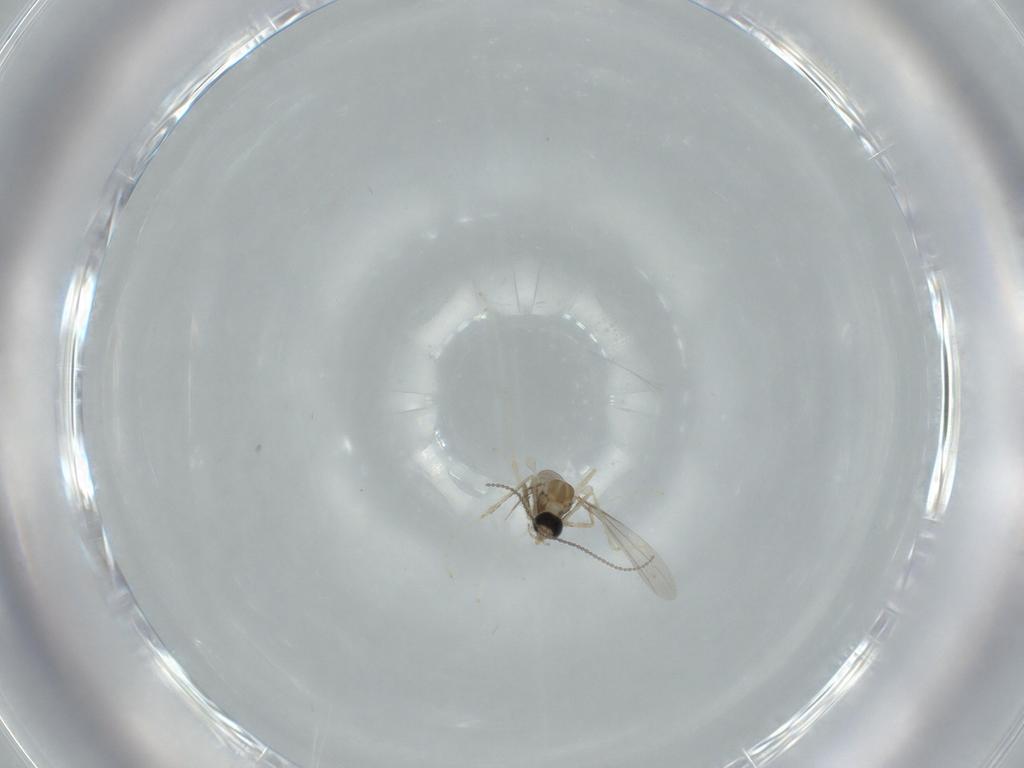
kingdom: Animalia
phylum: Arthropoda
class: Insecta
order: Diptera
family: Cecidomyiidae
